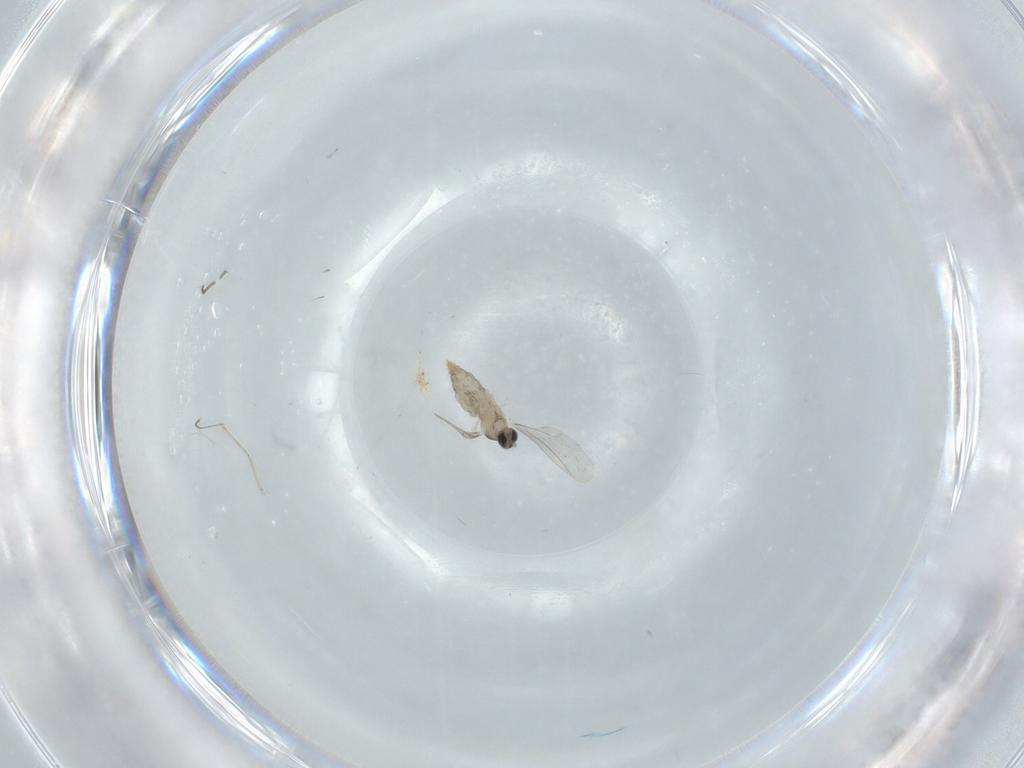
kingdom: Animalia
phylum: Arthropoda
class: Insecta
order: Diptera
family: Cecidomyiidae
